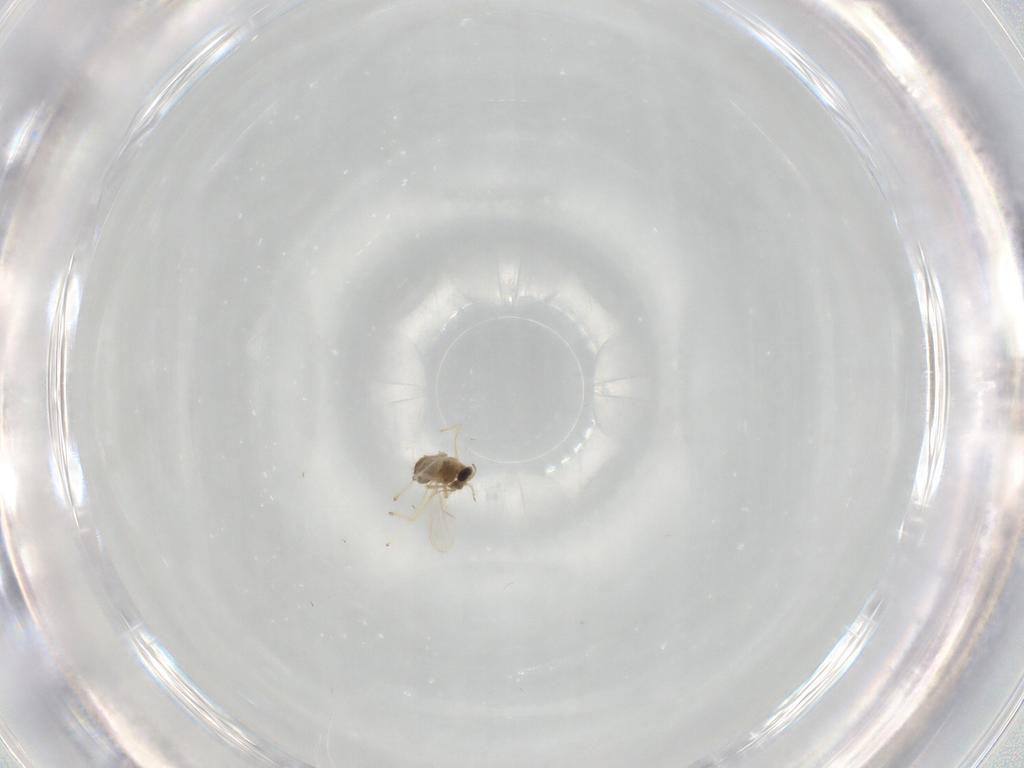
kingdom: Animalia
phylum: Arthropoda
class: Insecta
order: Diptera
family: Chironomidae
